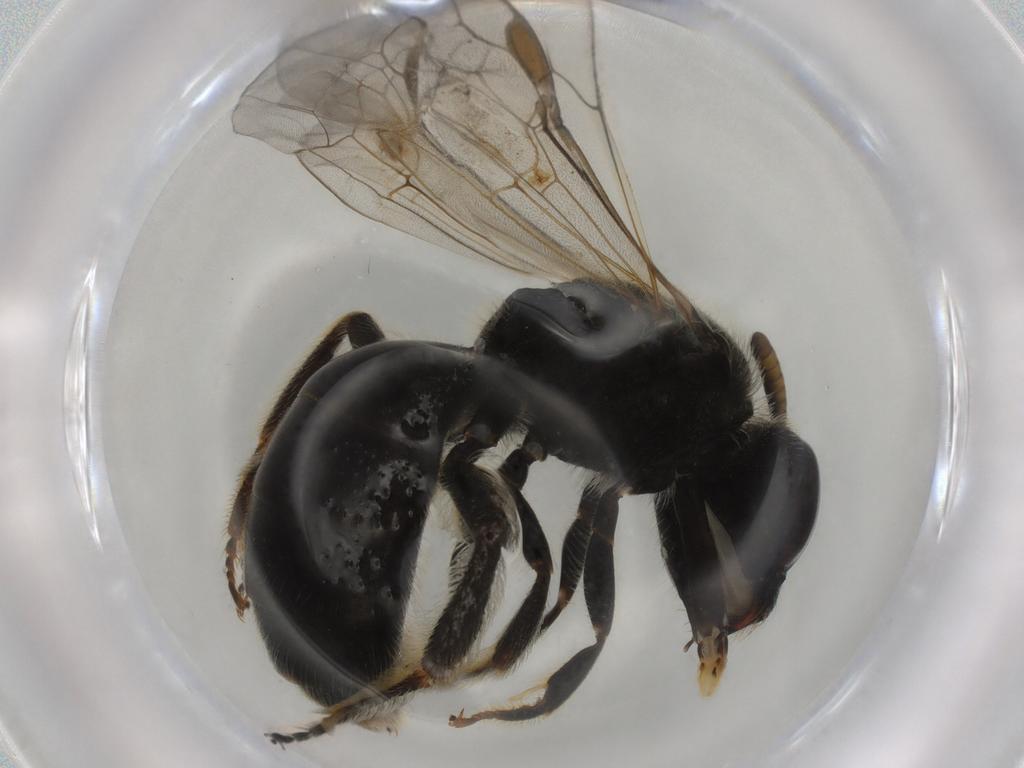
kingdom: Animalia
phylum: Arthropoda
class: Insecta
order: Hymenoptera
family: Halictidae
